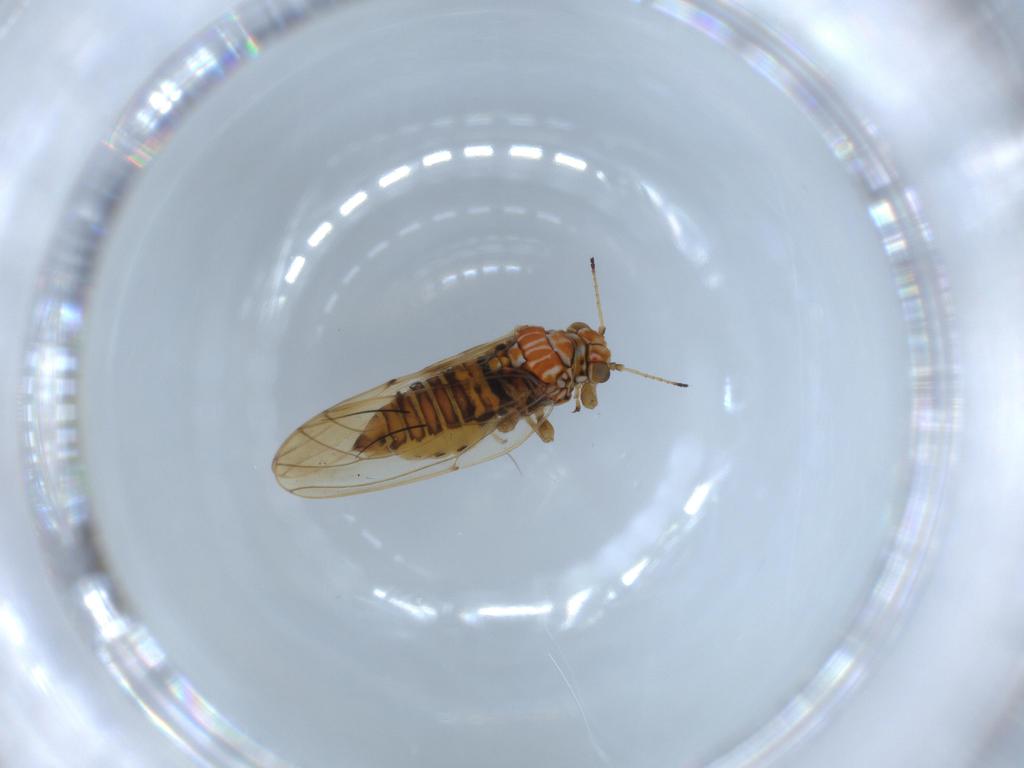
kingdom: Animalia
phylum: Arthropoda
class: Insecta
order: Hemiptera
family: Aphalaridae
